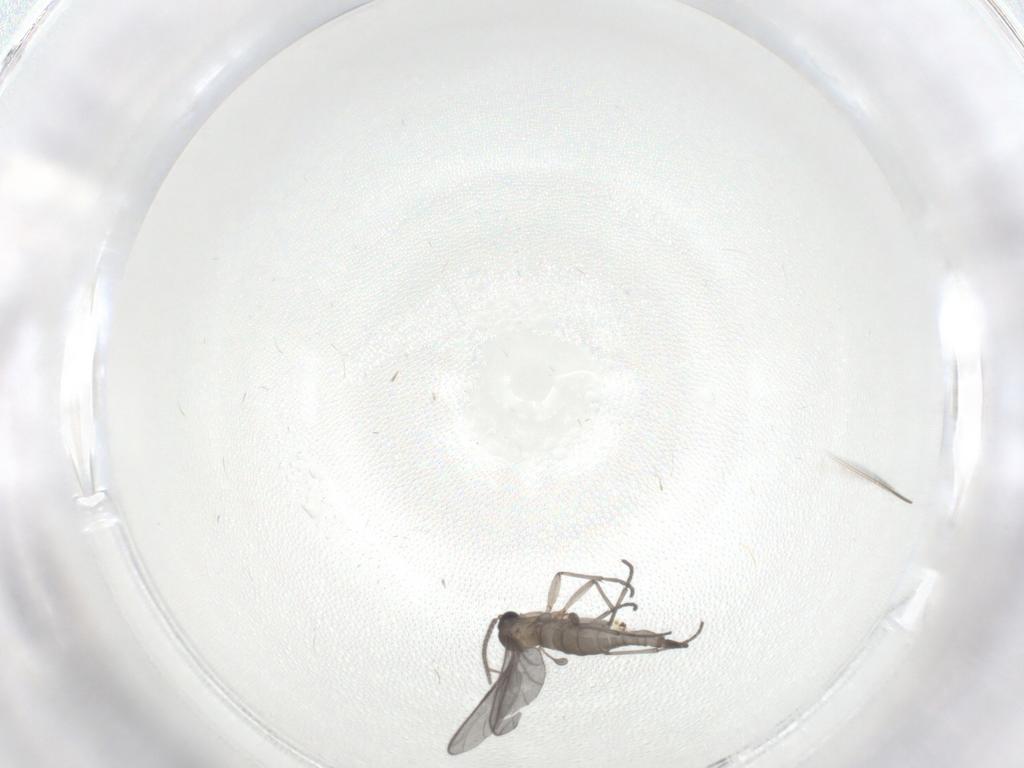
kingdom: Animalia
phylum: Arthropoda
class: Insecta
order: Diptera
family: Sciaridae
